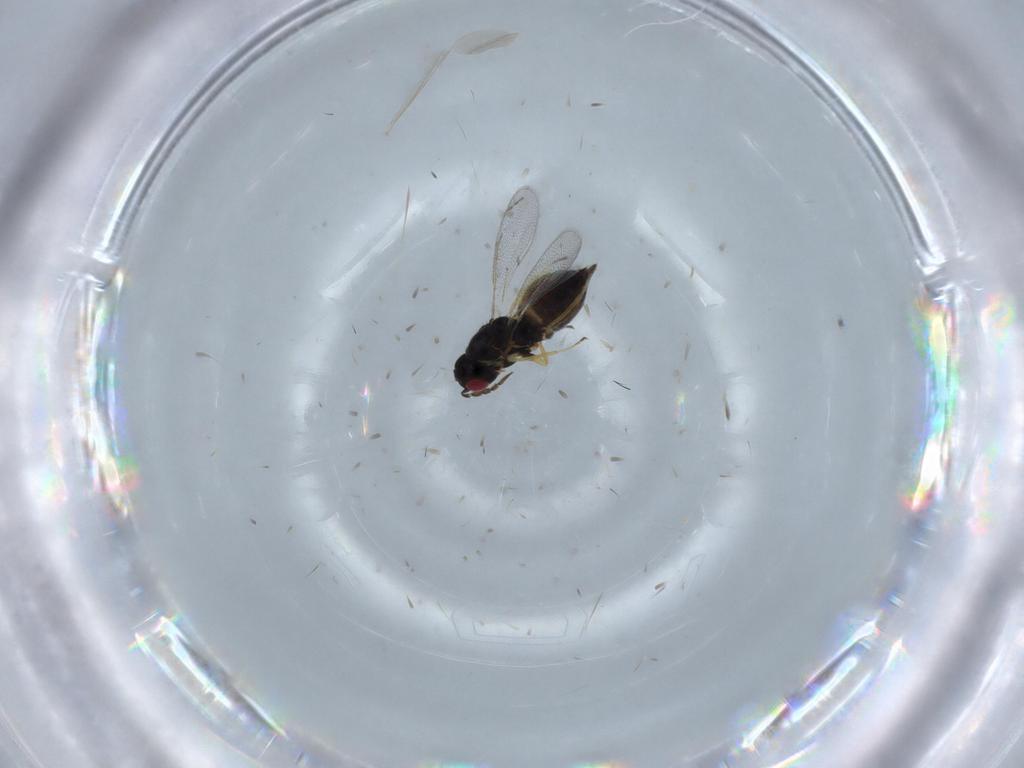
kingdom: Animalia
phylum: Arthropoda
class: Insecta
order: Hymenoptera
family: Eulophidae
